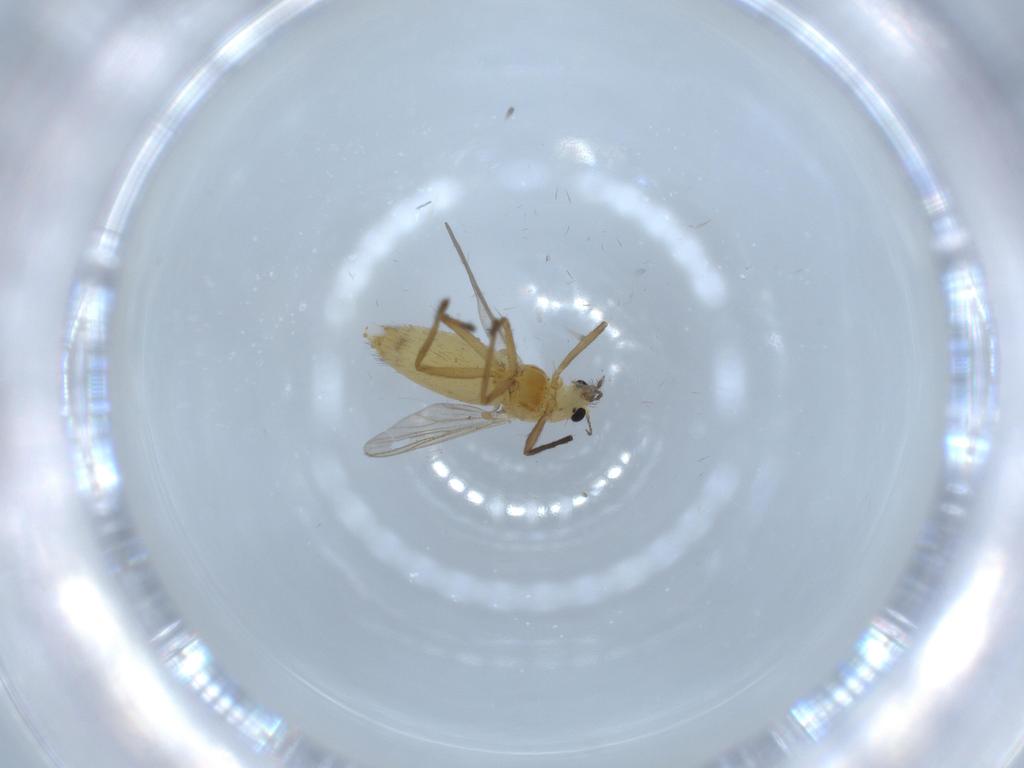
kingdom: Animalia
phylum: Arthropoda
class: Insecta
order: Diptera
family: Chironomidae
